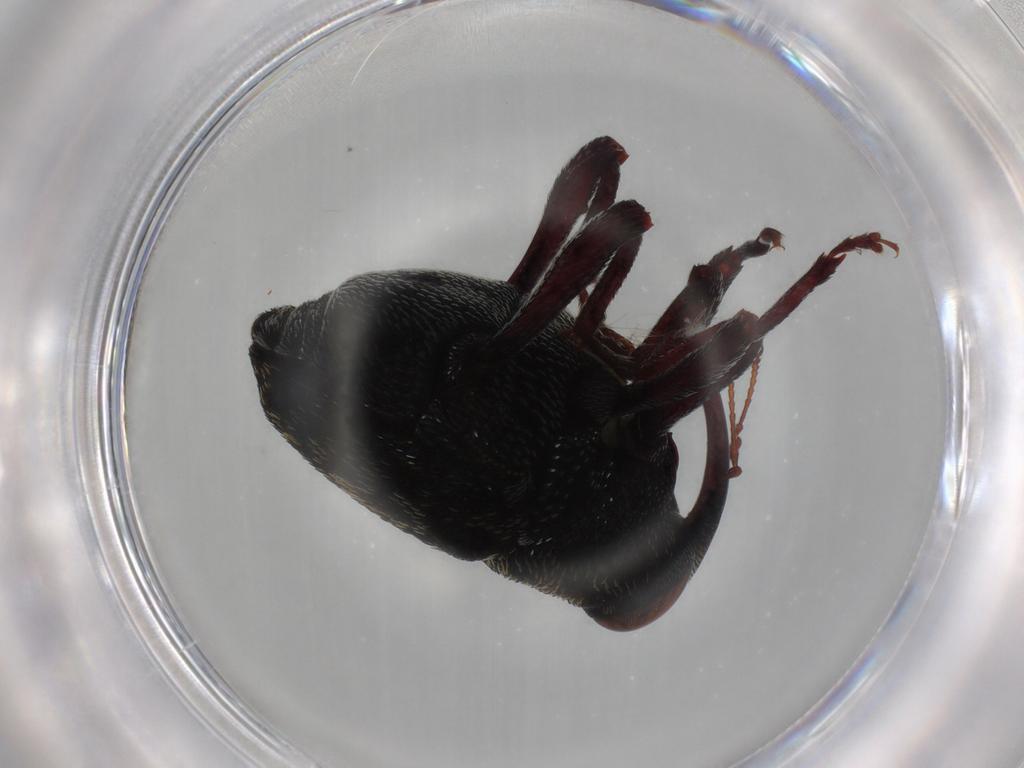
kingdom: Animalia
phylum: Arthropoda
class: Insecta
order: Coleoptera
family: Curculionidae
